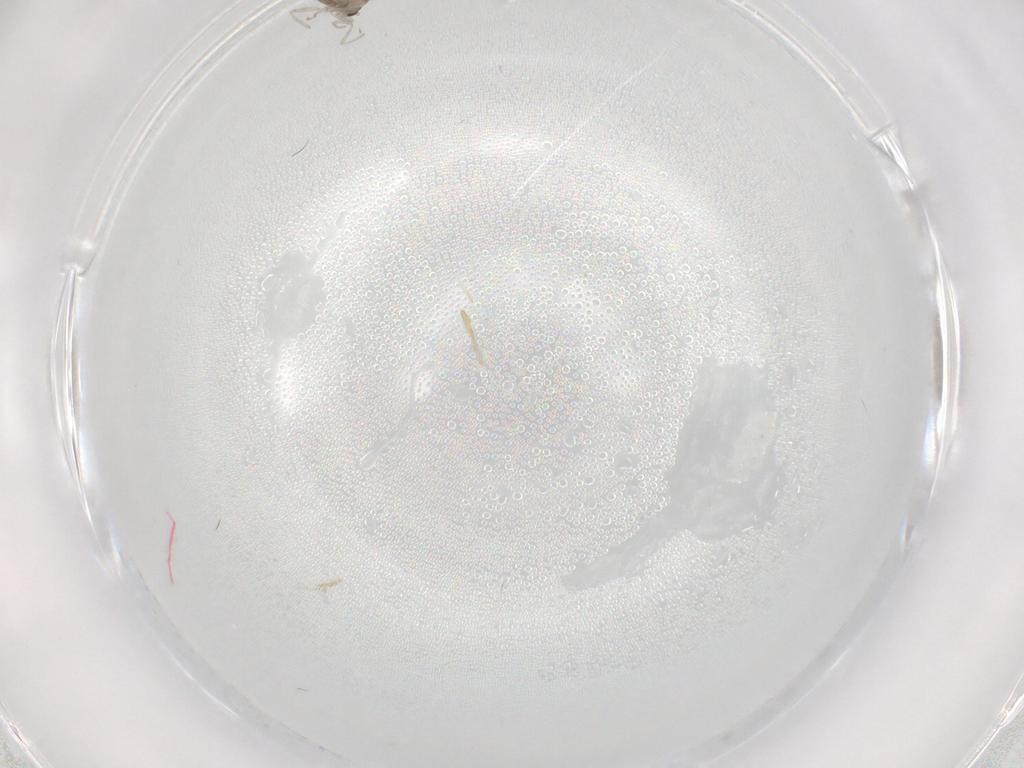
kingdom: Animalia
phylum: Arthropoda
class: Insecta
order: Diptera
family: Cecidomyiidae
